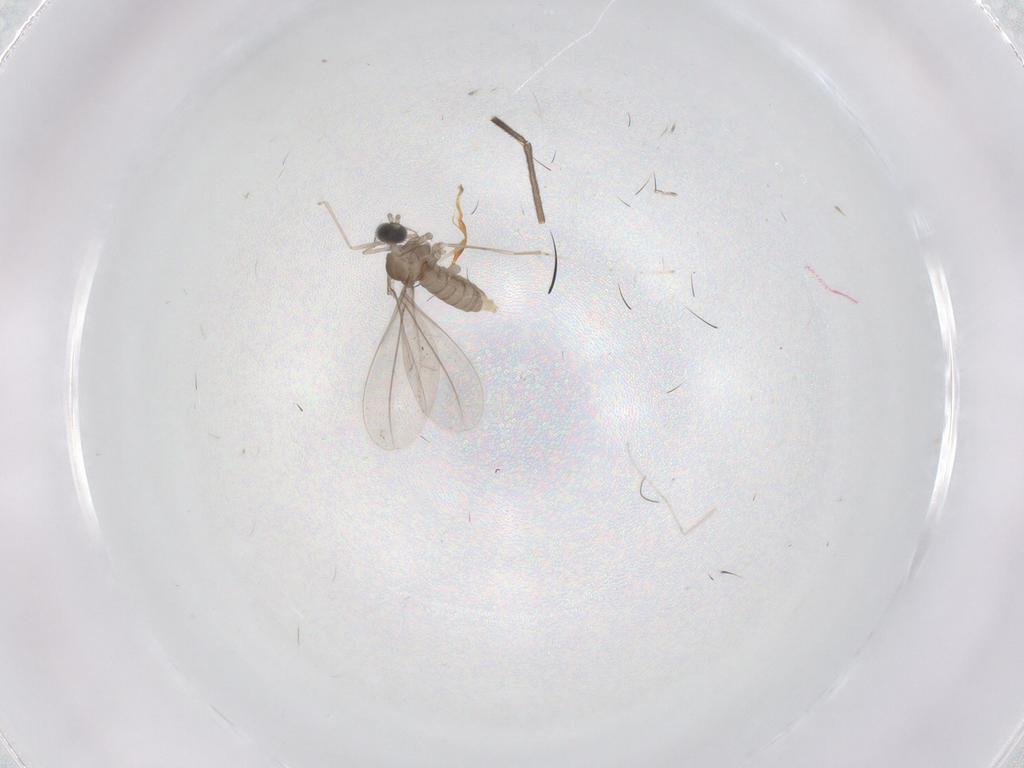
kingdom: Animalia
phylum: Arthropoda
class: Insecta
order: Diptera
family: Cecidomyiidae
